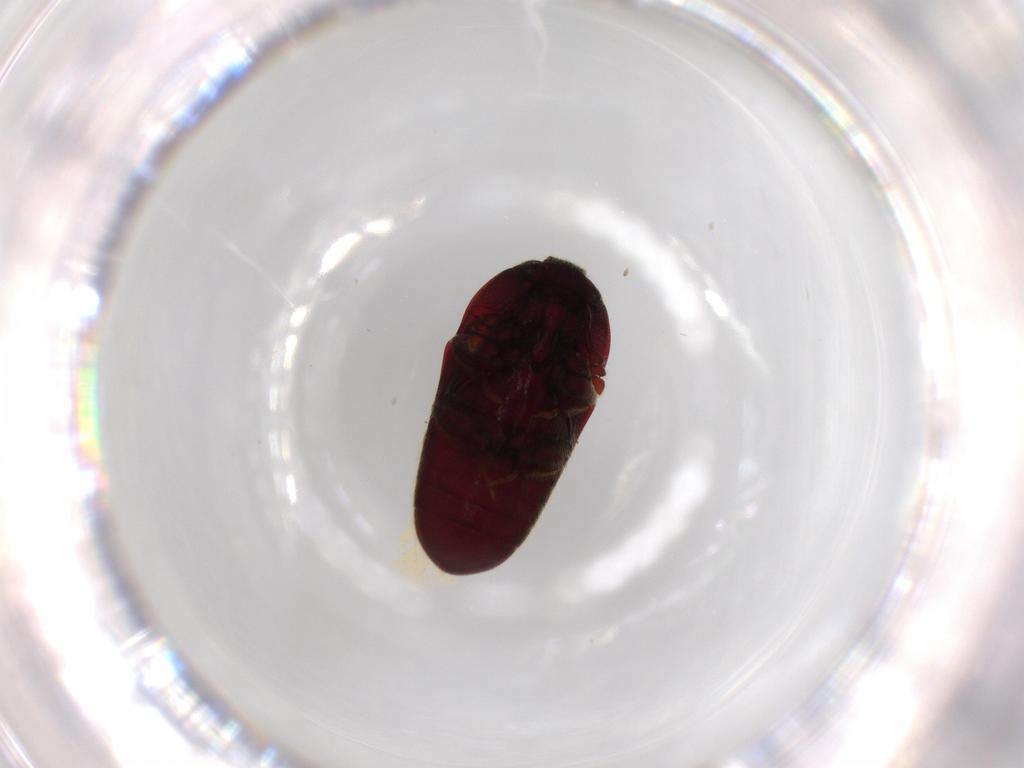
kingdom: Animalia
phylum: Arthropoda
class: Insecta
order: Coleoptera
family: Throscidae
